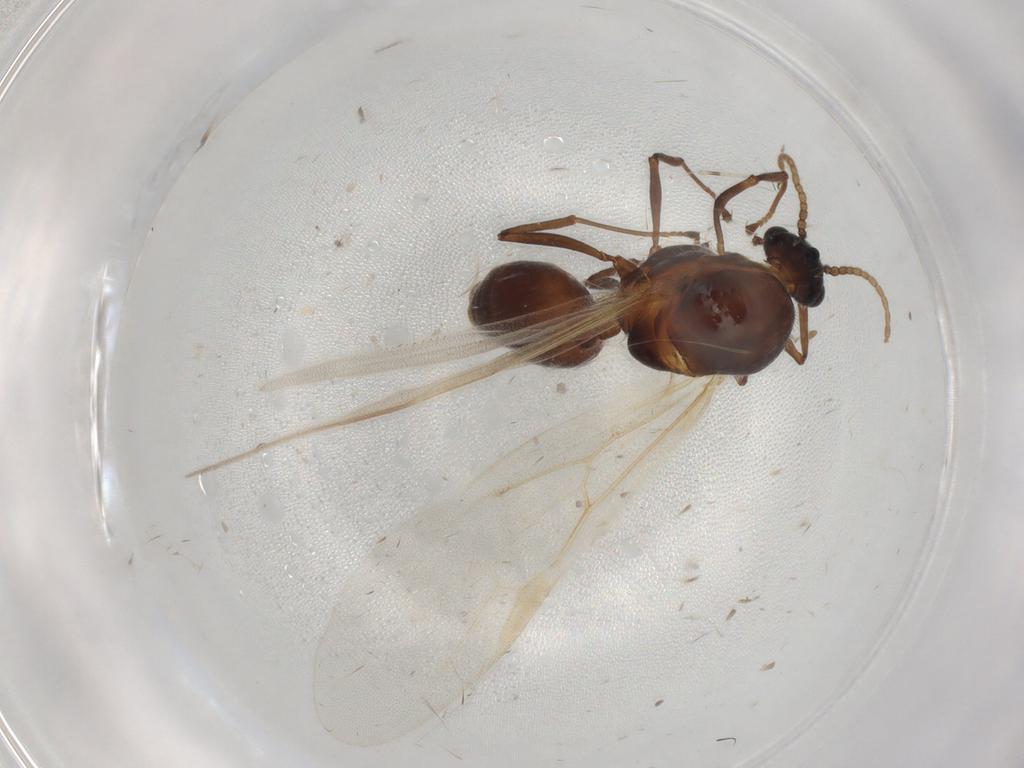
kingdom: Animalia
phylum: Arthropoda
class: Insecta
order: Hymenoptera
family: Formicidae
